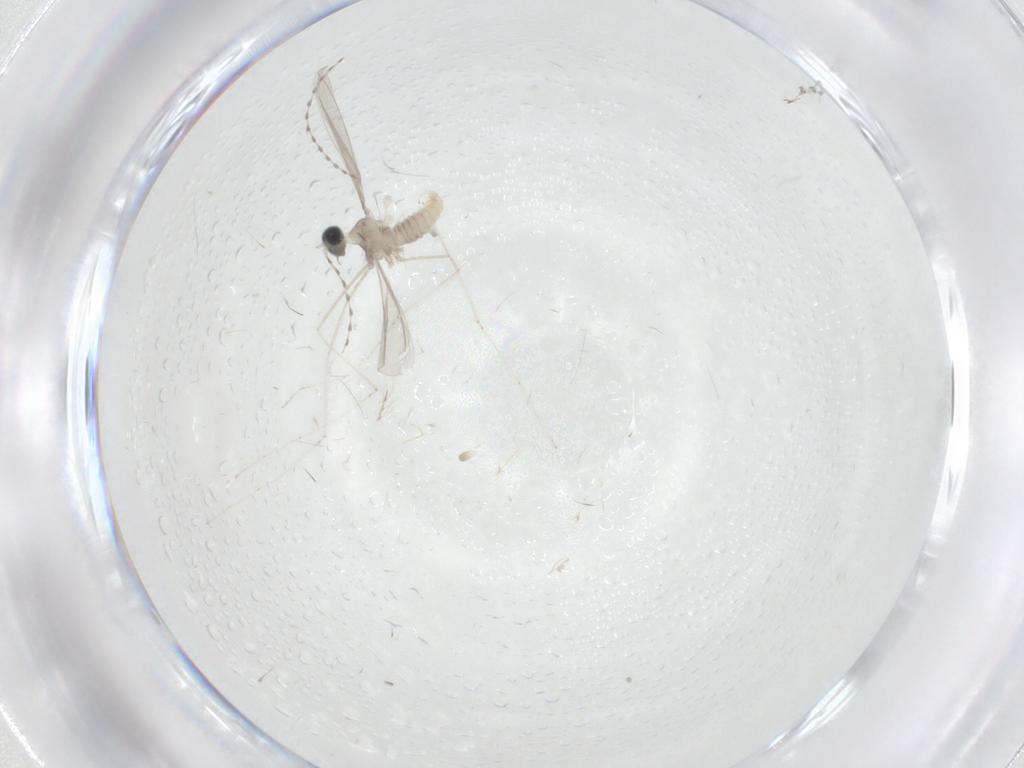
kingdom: Animalia
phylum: Arthropoda
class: Insecta
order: Diptera
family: Cecidomyiidae
